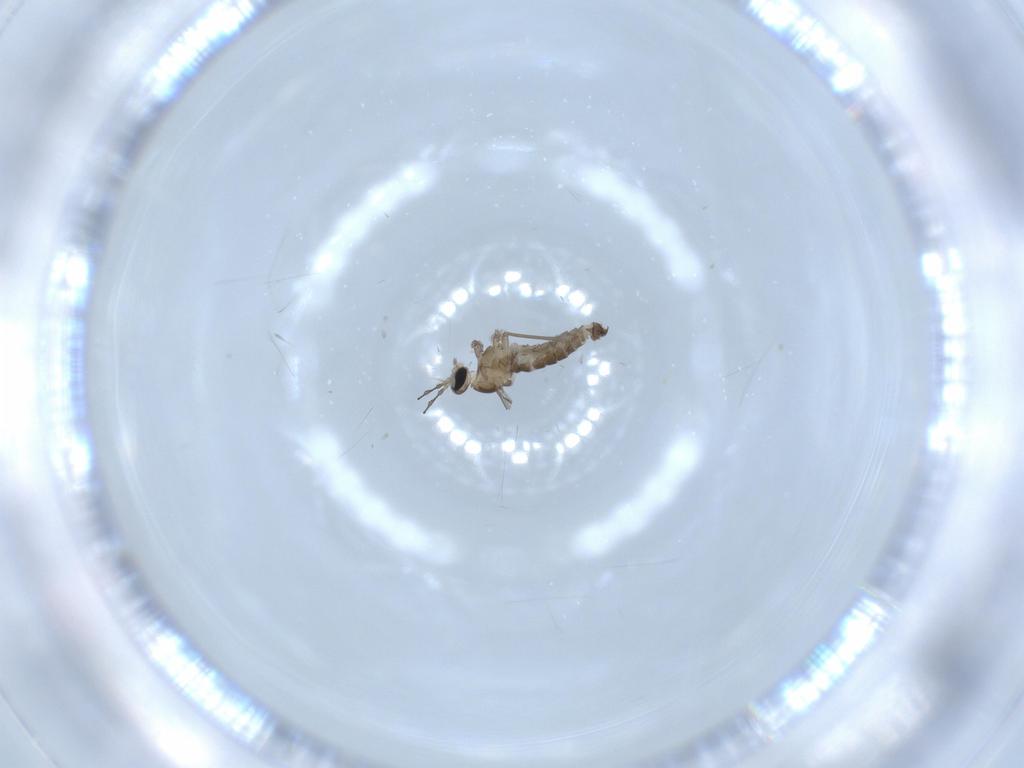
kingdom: Animalia
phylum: Arthropoda
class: Insecta
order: Diptera
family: Cecidomyiidae
